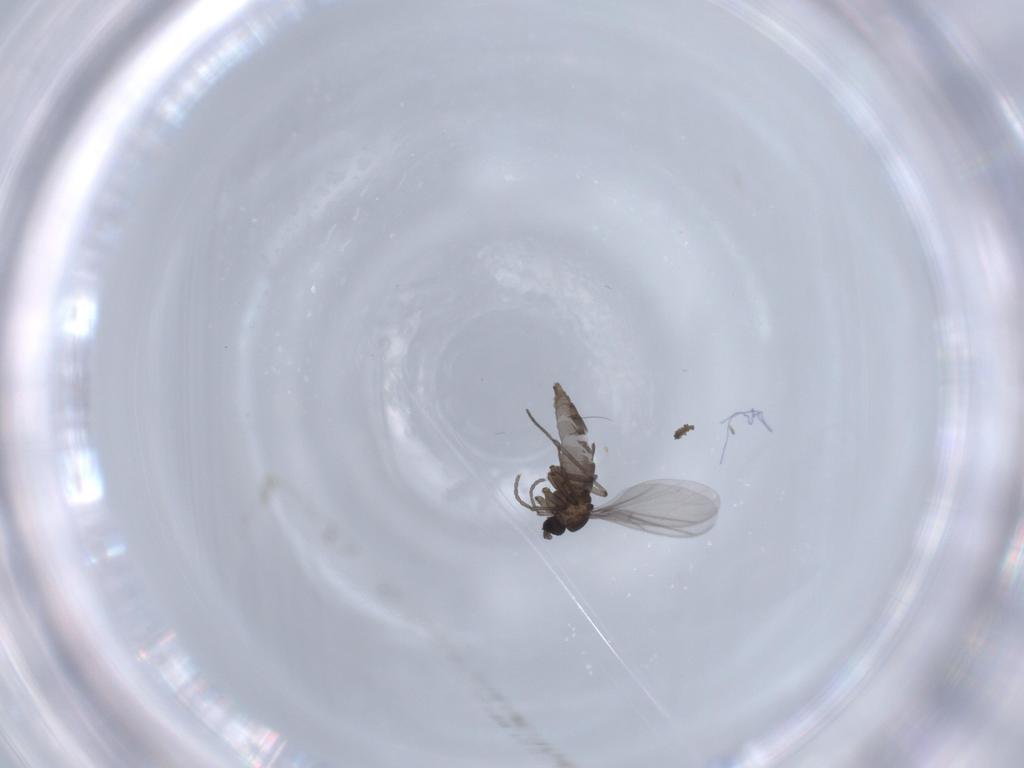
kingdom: Animalia
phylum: Arthropoda
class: Insecta
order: Diptera
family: Sciaridae
